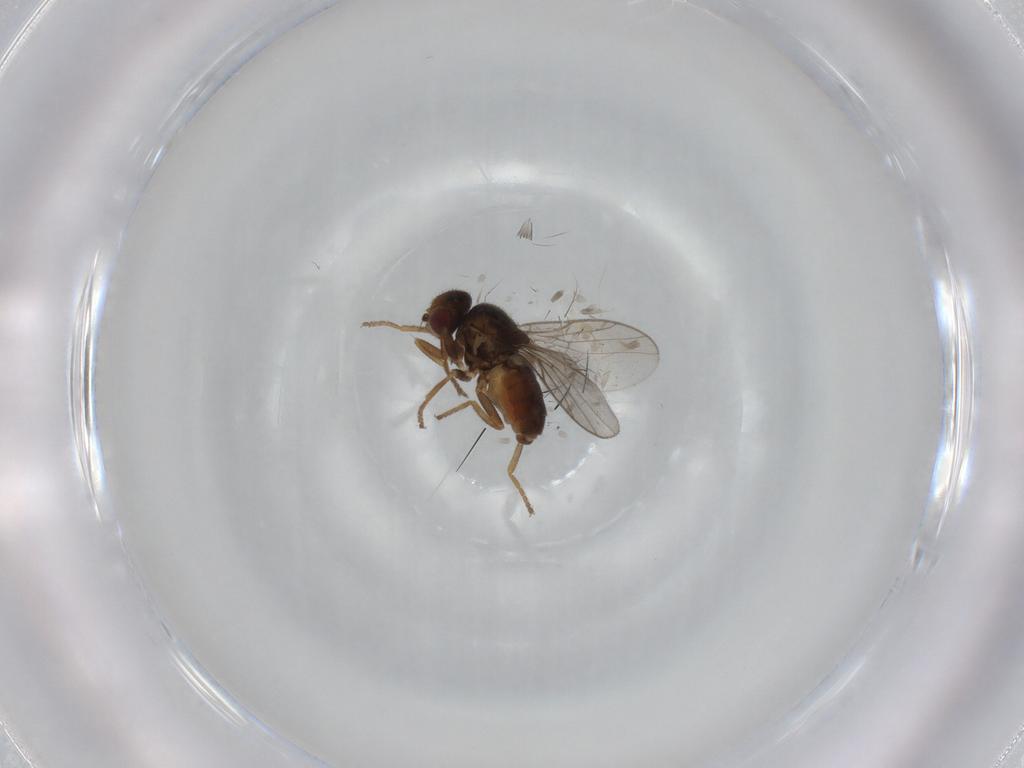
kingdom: Animalia
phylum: Arthropoda
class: Insecta
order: Diptera
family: Chloropidae
